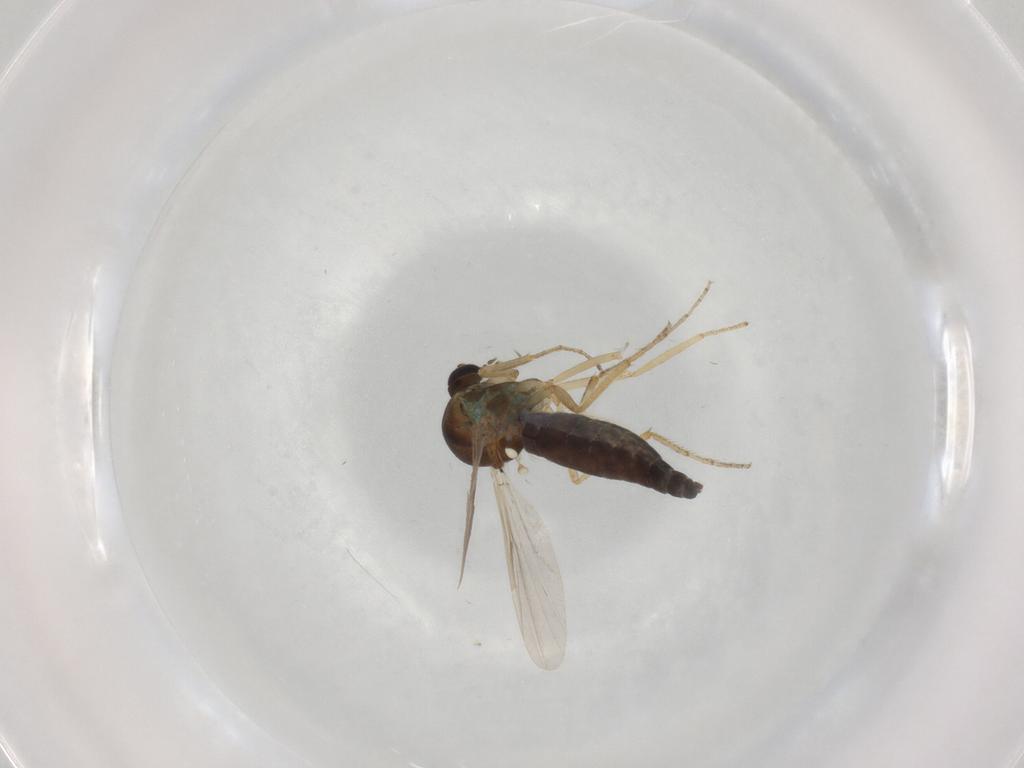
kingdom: Animalia
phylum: Arthropoda
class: Insecta
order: Diptera
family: Ceratopogonidae
